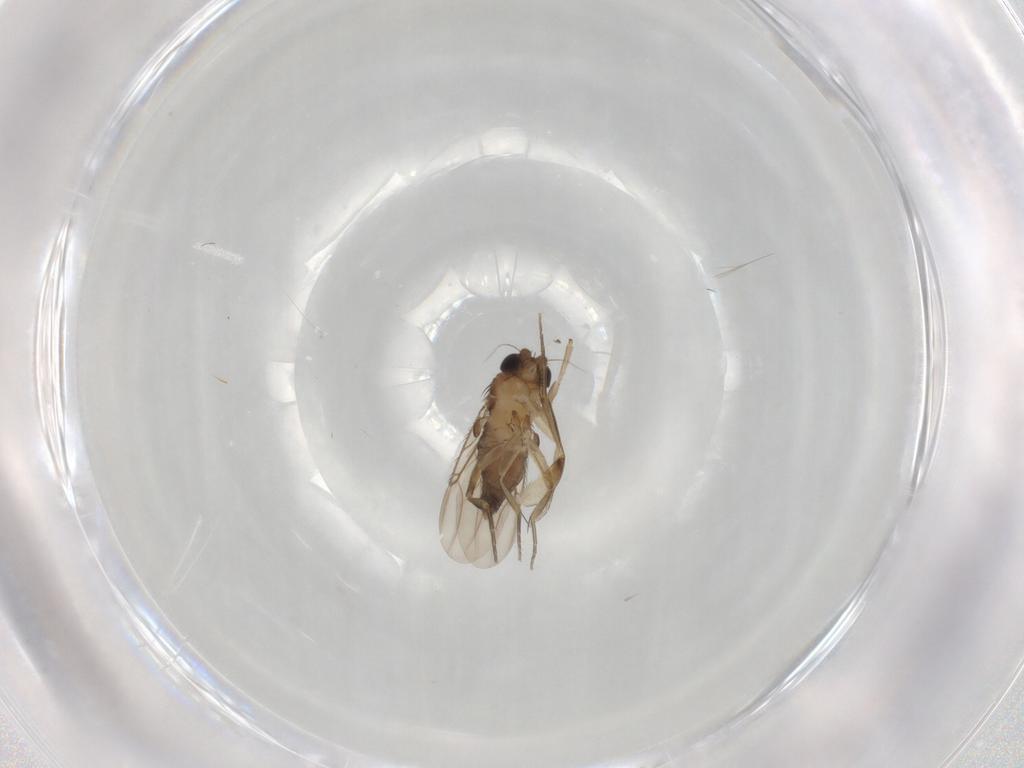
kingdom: Animalia
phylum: Arthropoda
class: Insecta
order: Diptera
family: Phoridae
